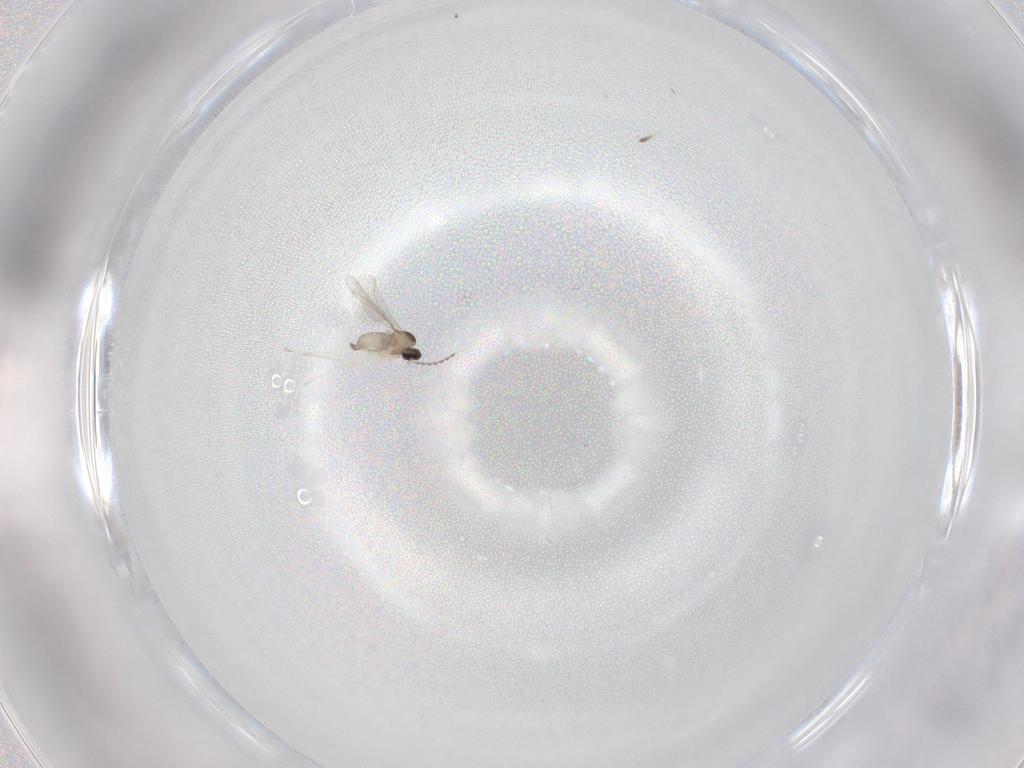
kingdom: Animalia
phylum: Arthropoda
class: Insecta
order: Diptera
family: Cecidomyiidae
